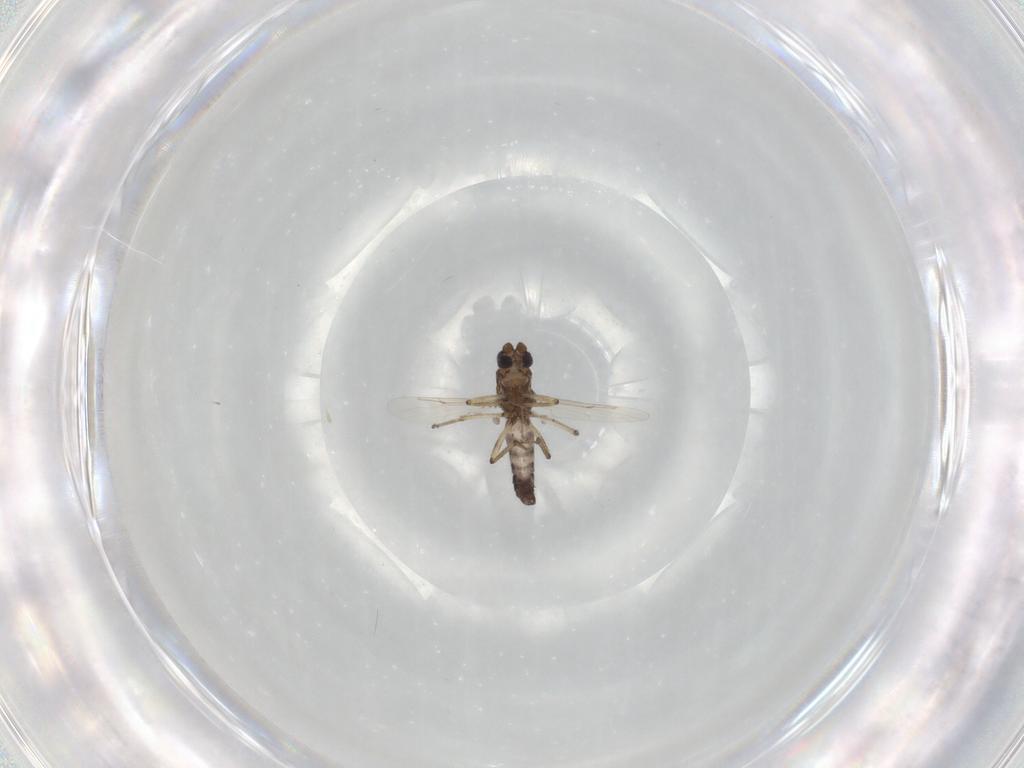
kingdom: Animalia
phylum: Arthropoda
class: Insecta
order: Diptera
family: Ceratopogonidae
